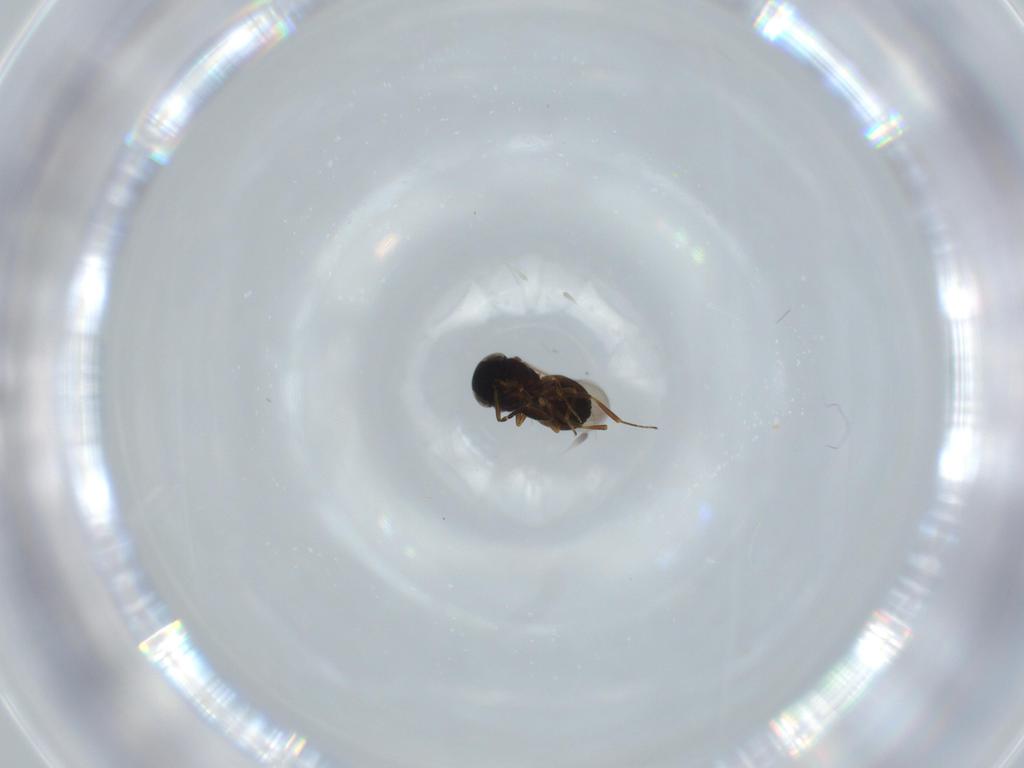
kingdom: Animalia
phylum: Arthropoda
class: Insecta
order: Coleoptera
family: Curculionidae
